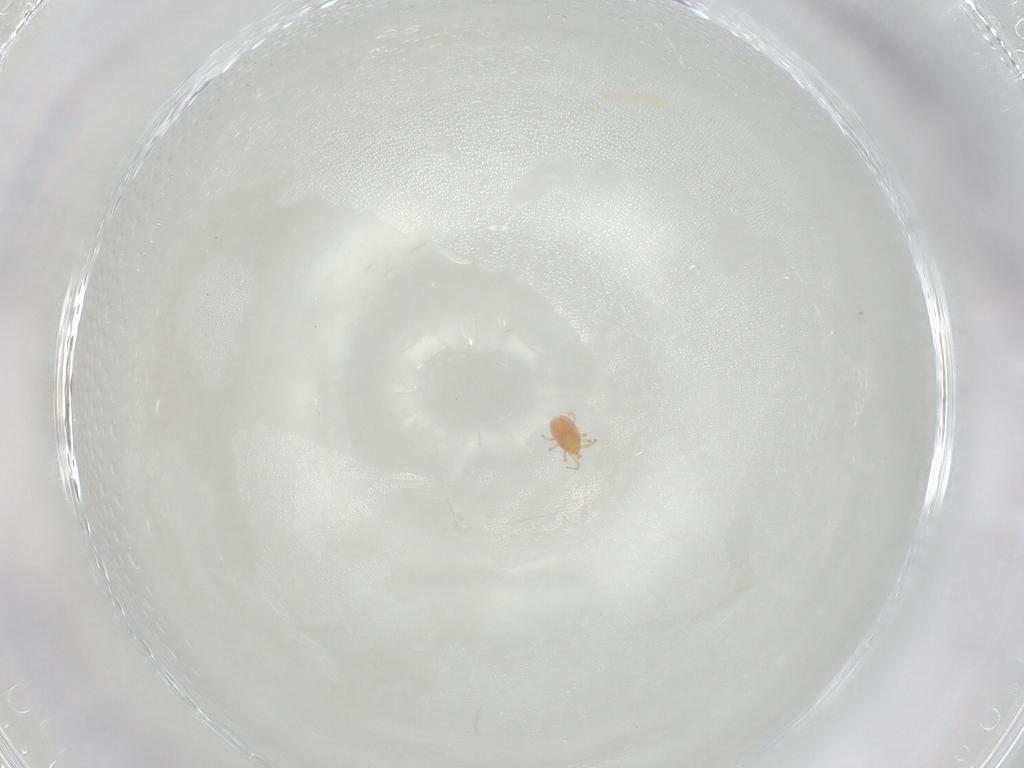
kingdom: Animalia
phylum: Arthropoda
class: Arachnida
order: Mesostigmata
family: Phytoseiidae
